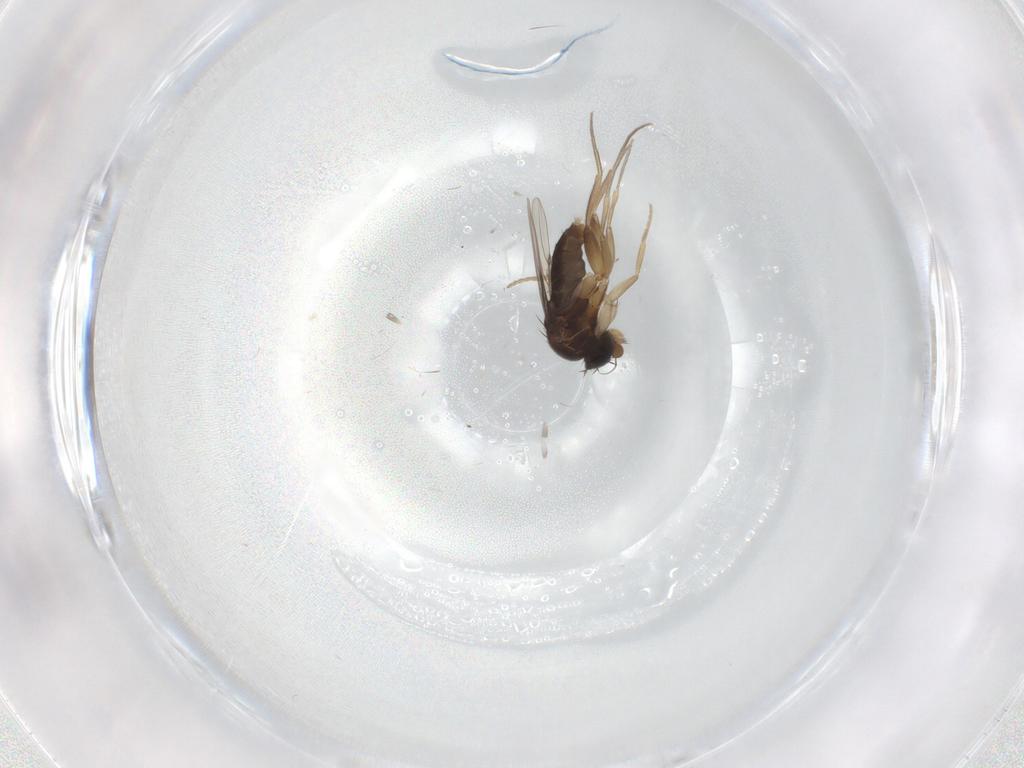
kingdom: Animalia
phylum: Arthropoda
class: Insecta
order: Diptera
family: Phoridae
